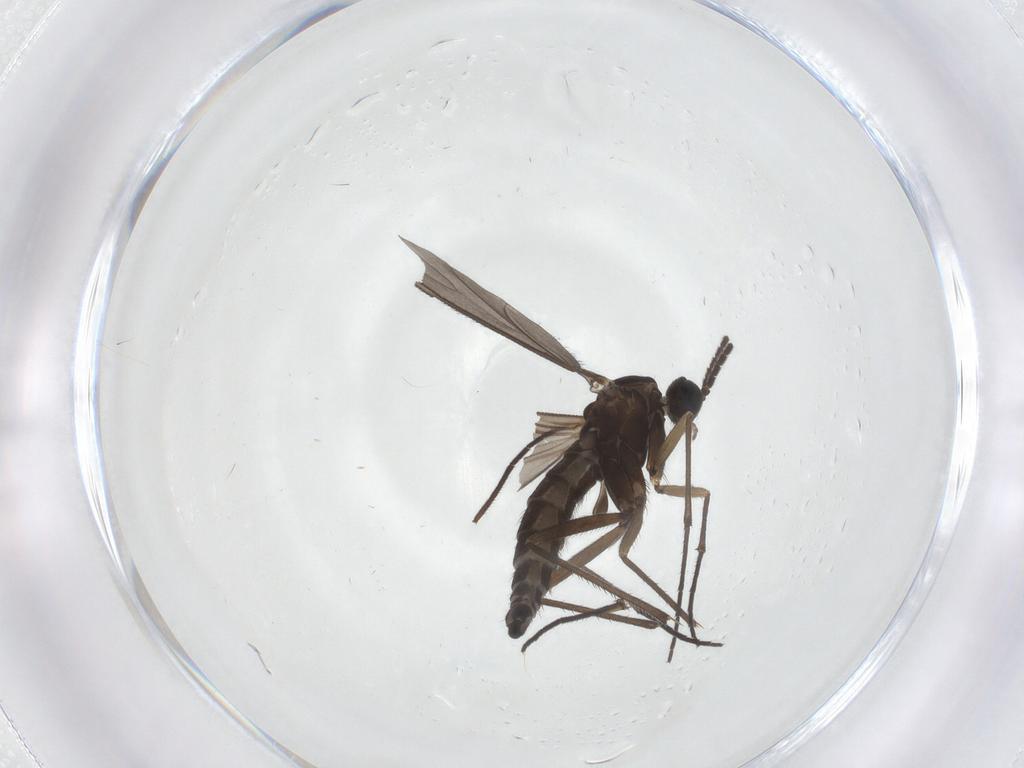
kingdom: Animalia
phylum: Arthropoda
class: Insecta
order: Diptera
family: Sciaridae
